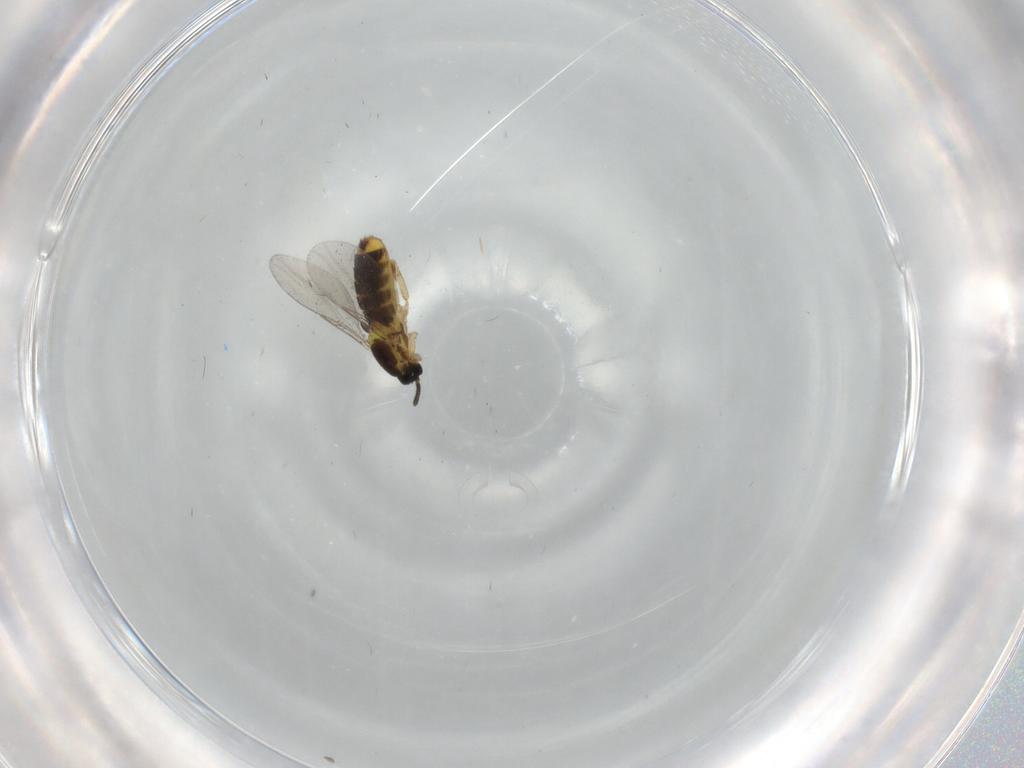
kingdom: Animalia
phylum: Arthropoda
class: Insecta
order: Diptera
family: Scatopsidae
